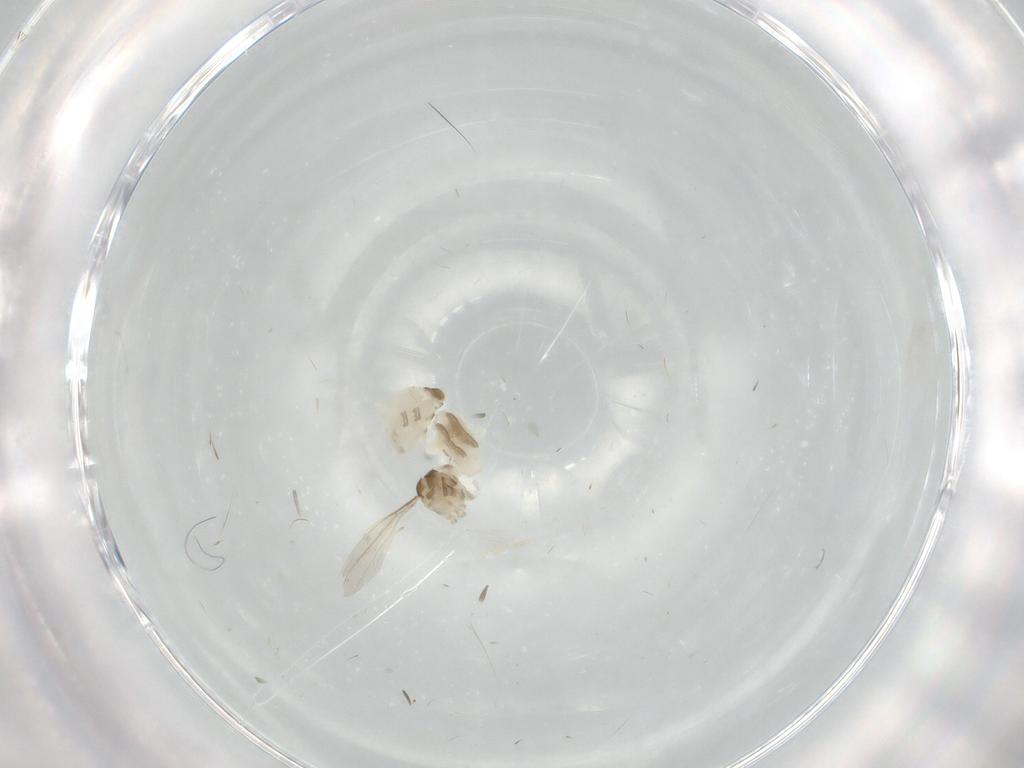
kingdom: Animalia
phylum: Arthropoda
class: Insecta
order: Diptera
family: Cecidomyiidae
